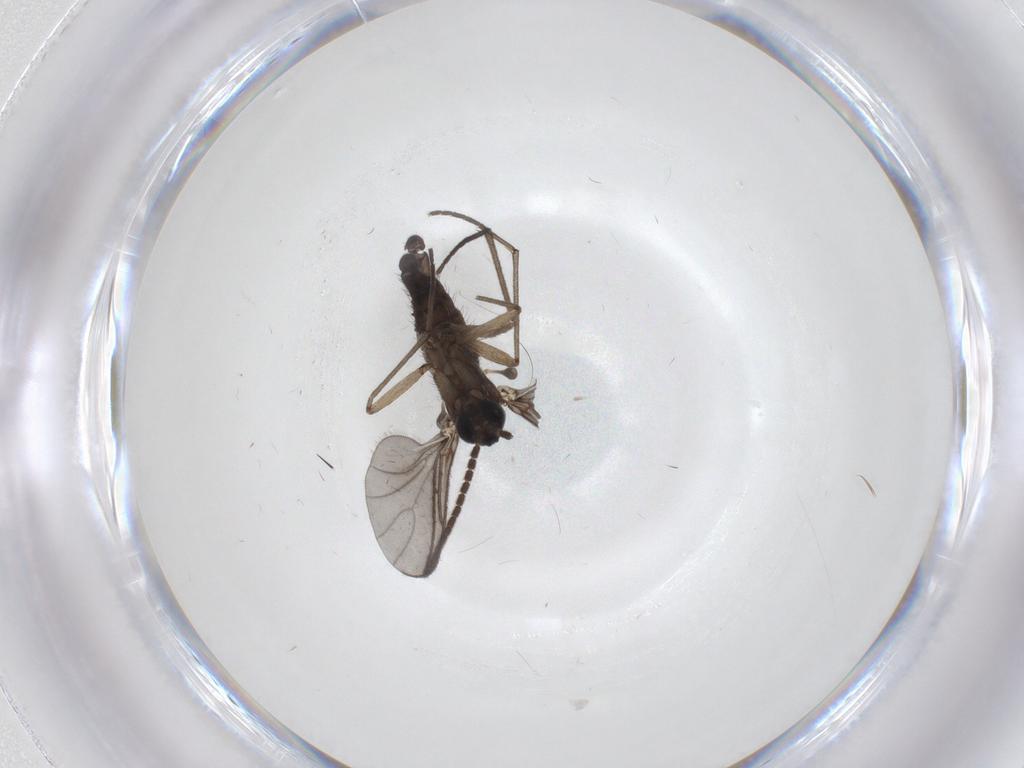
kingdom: Animalia
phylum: Arthropoda
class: Insecta
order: Diptera
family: Sciaridae
